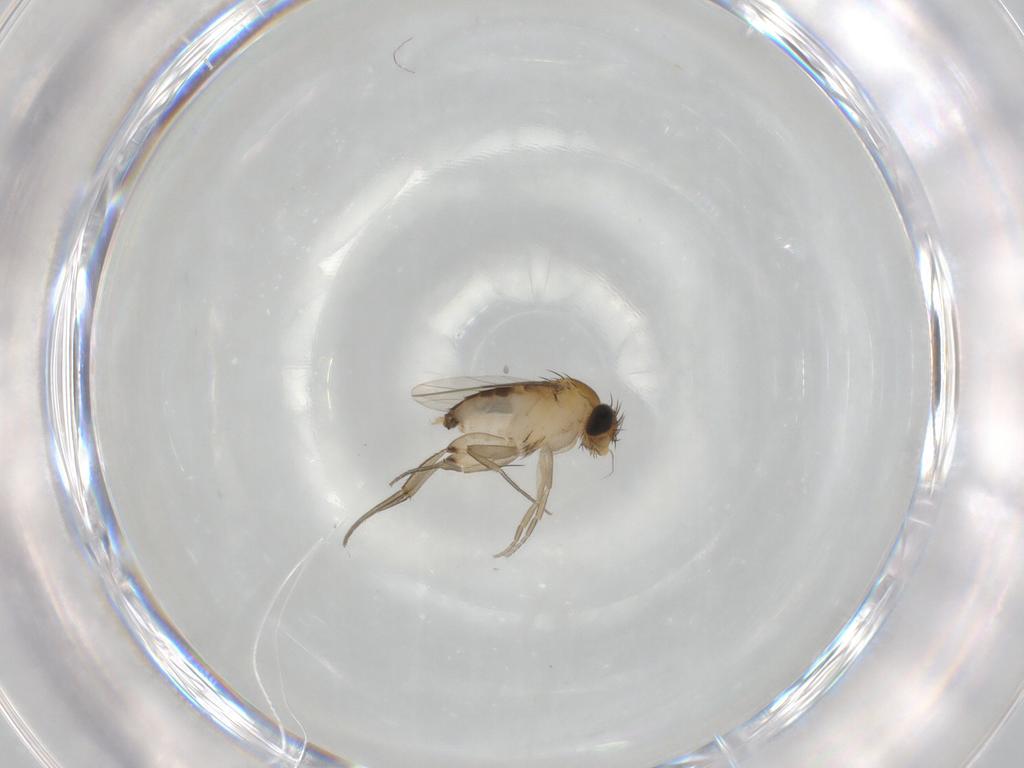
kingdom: Animalia
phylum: Arthropoda
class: Insecta
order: Diptera
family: Phoridae
